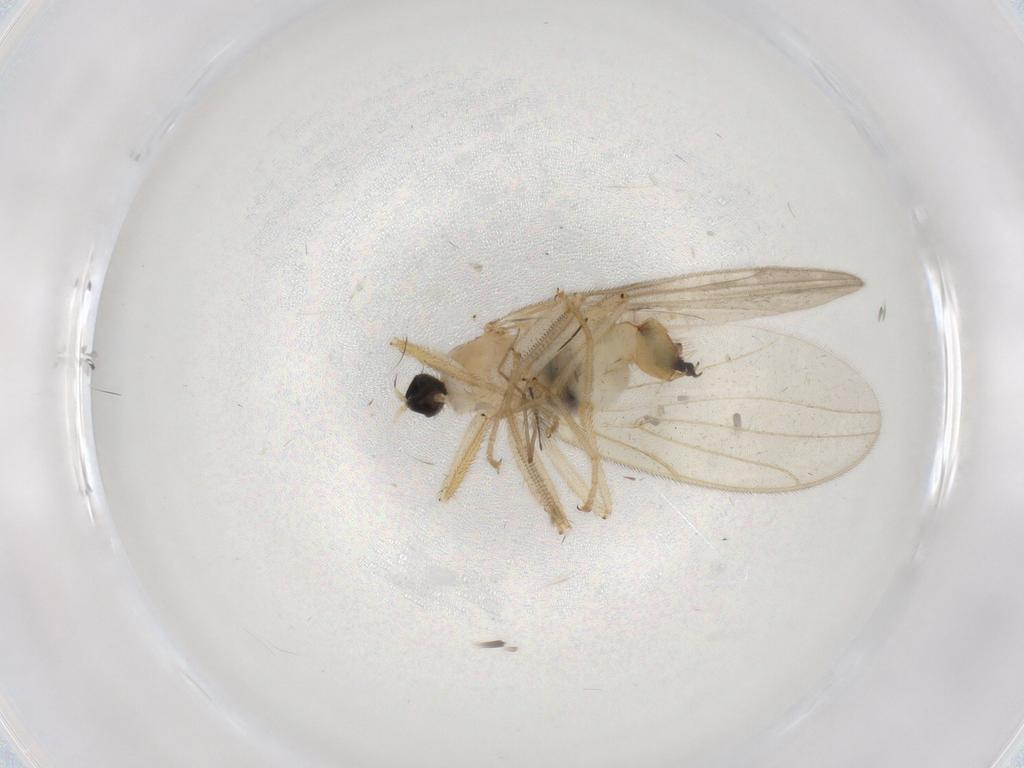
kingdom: Animalia
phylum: Arthropoda
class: Insecta
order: Diptera
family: Hybotidae
